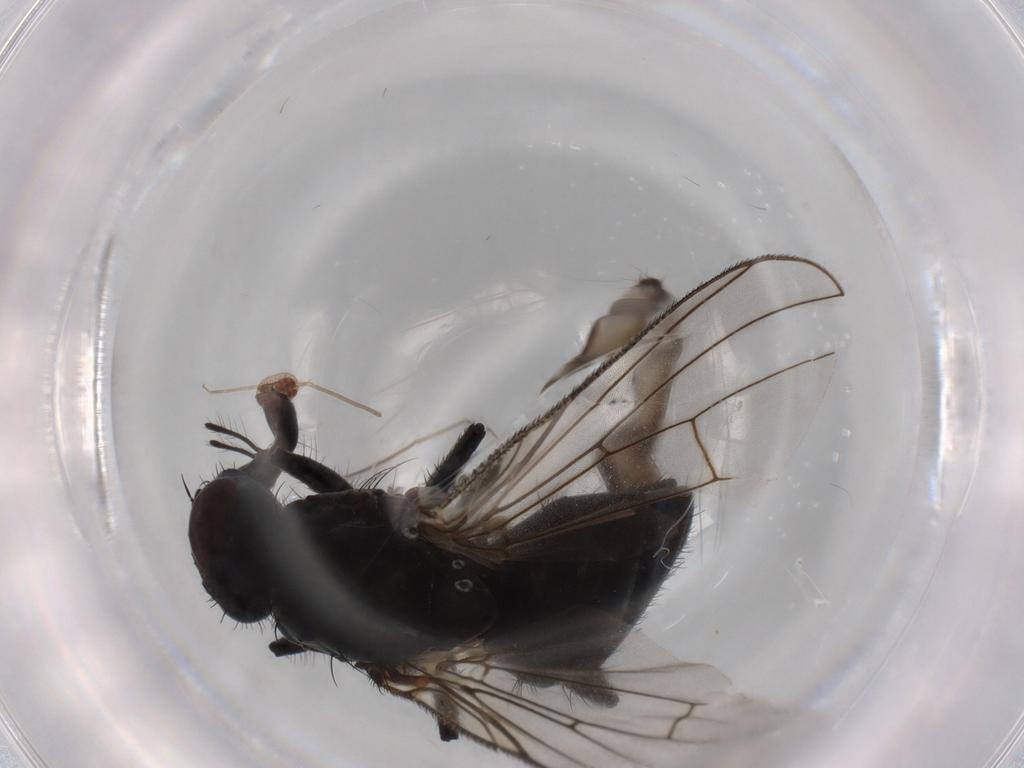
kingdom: Animalia
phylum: Arthropoda
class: Insecta
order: Diptera
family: Muscidae
